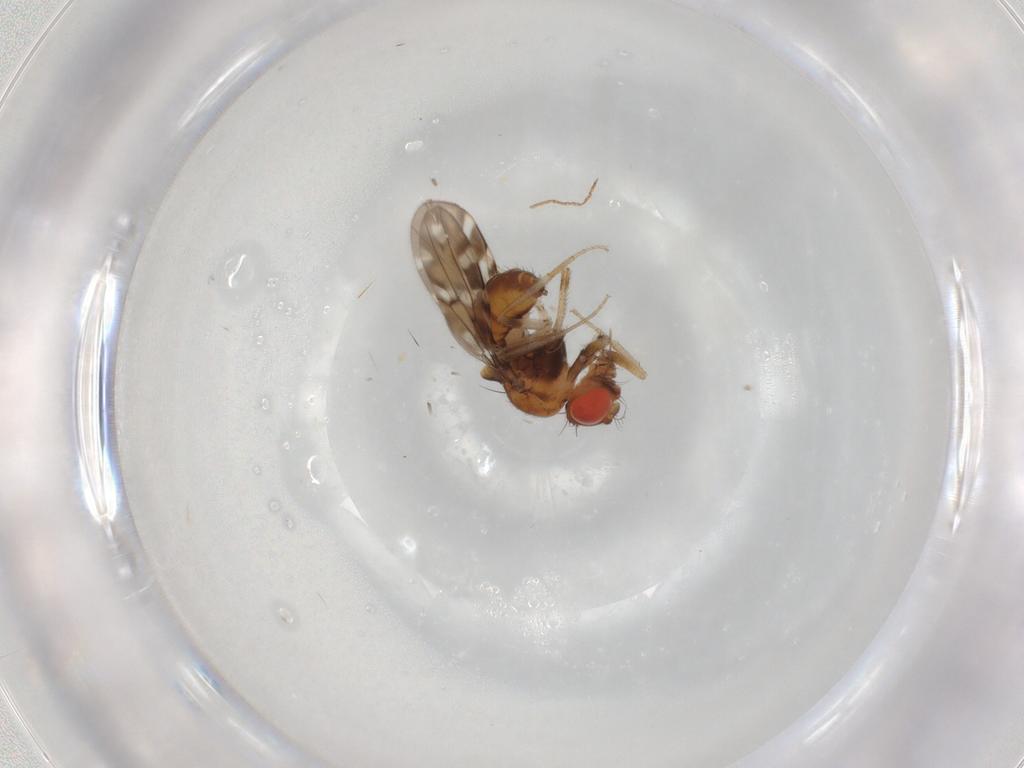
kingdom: Animalia
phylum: Arthropoda
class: Insecta
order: Diptera
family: Drosophilidae
